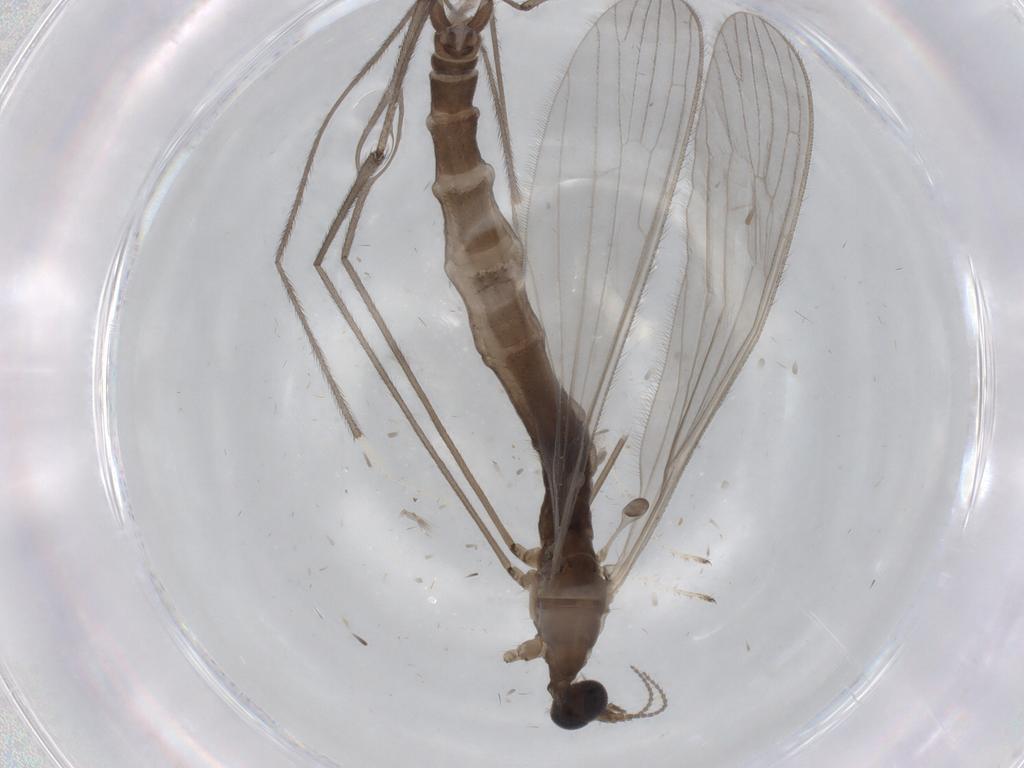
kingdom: Animalia
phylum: Arthropoda
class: Insecta
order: Diptera
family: Limoniidae
